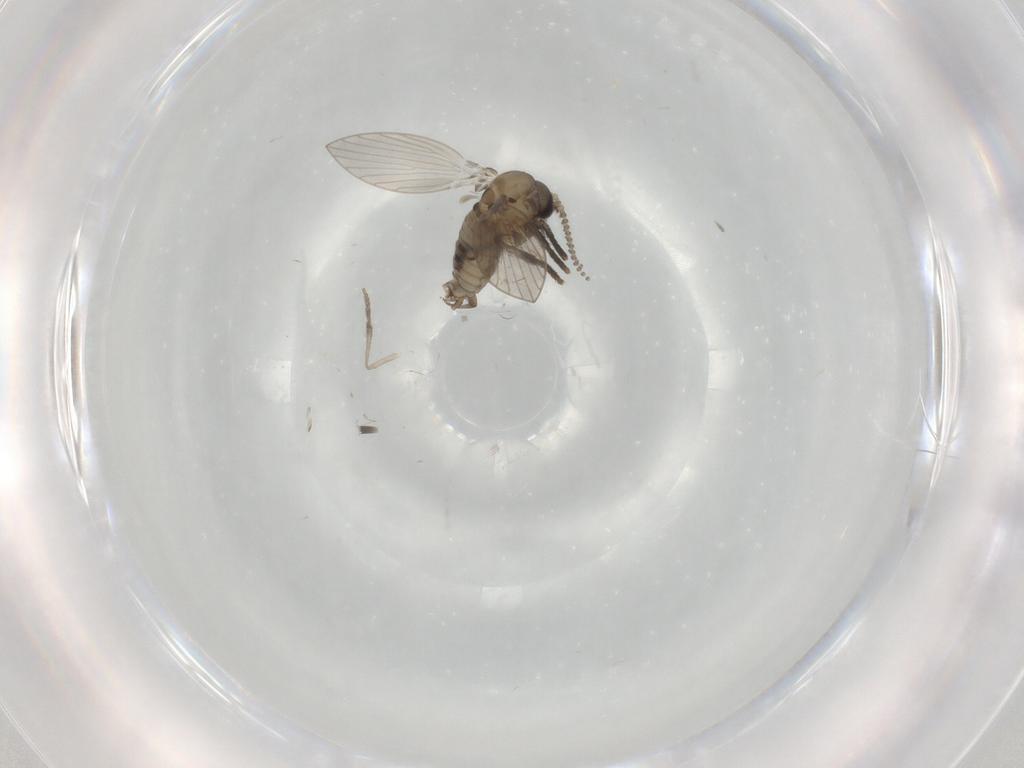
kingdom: Animalia
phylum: Arthropoda
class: Insecta
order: Diptera
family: Psychodidae
